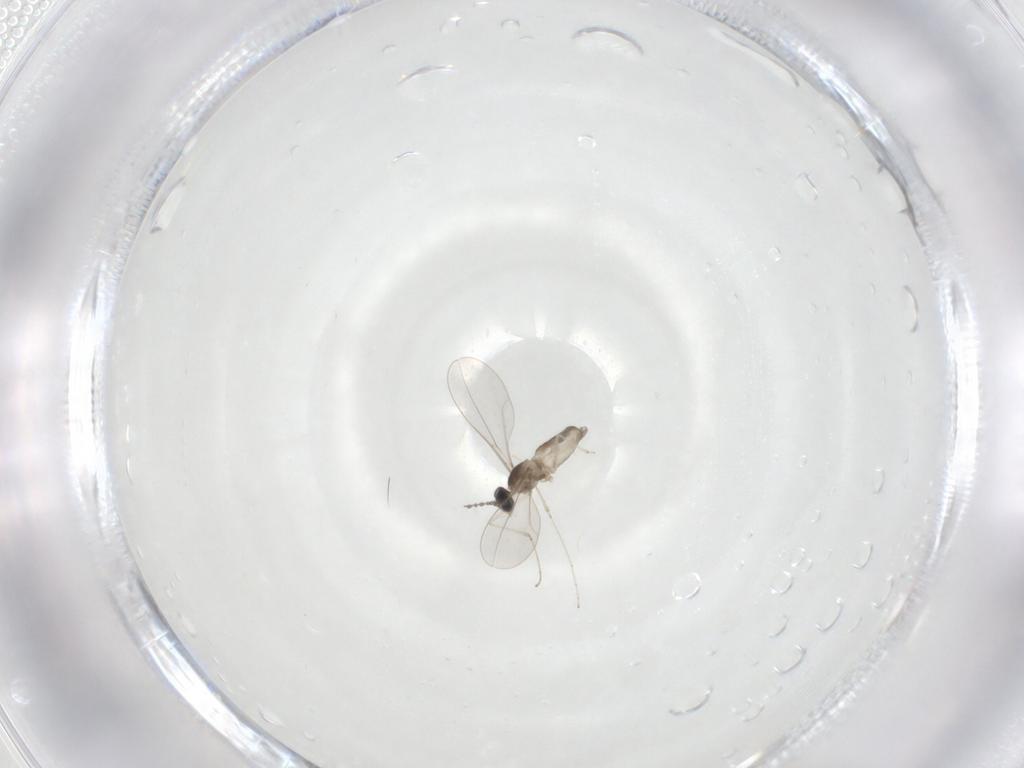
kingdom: Animalia
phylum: Arthropoda
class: Insecta
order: Diptera
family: Cecidomyiidae
